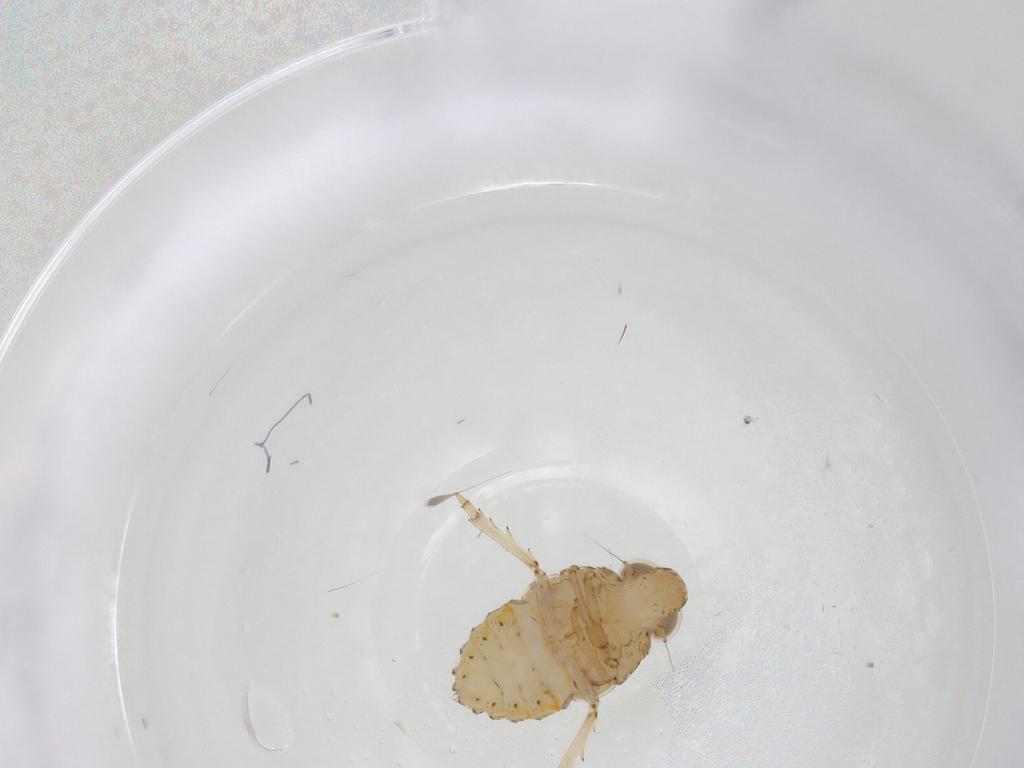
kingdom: Animalia
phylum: Arthropoda
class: Insecta
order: Hemiptera
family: Issidae
